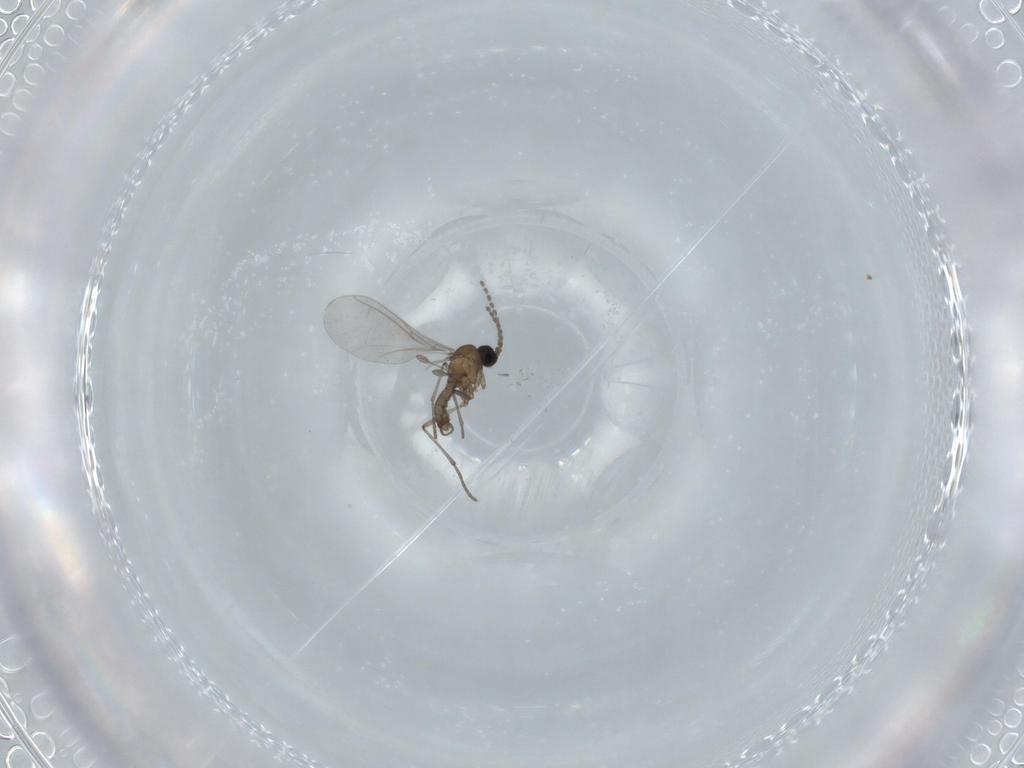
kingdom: Animalia
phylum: Arthropoda
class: Insecta
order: Diptera
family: Sciaridae
